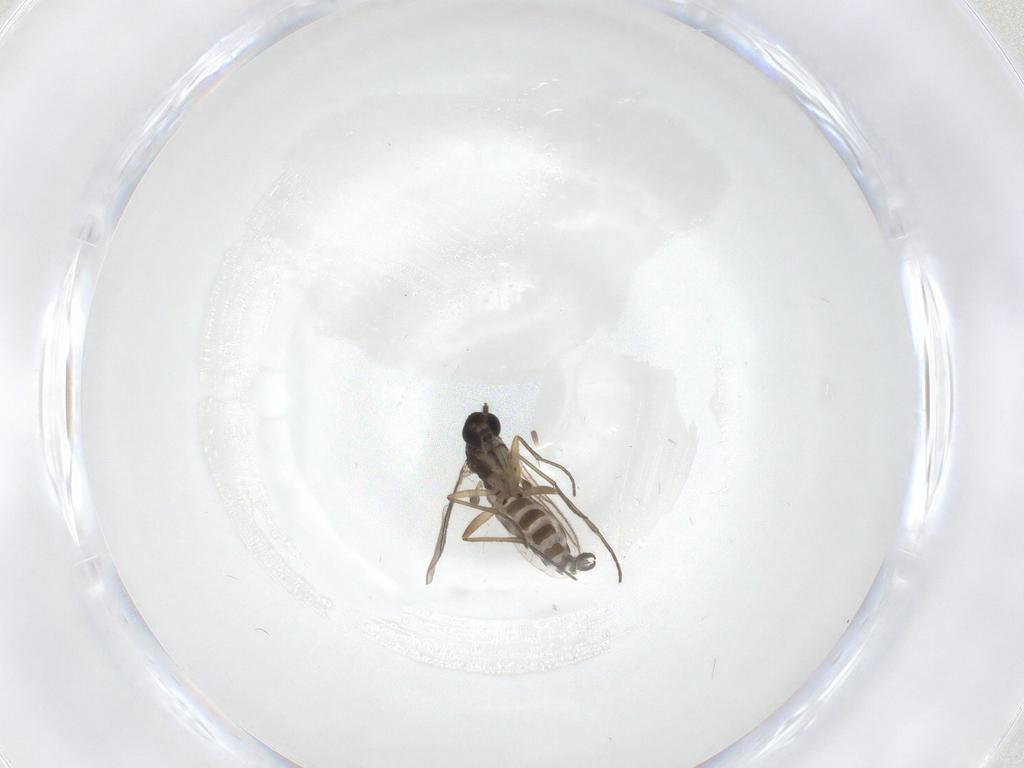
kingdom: Animalia
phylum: Arthropoda
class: Insecta
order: Diptera
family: Sciaridae
